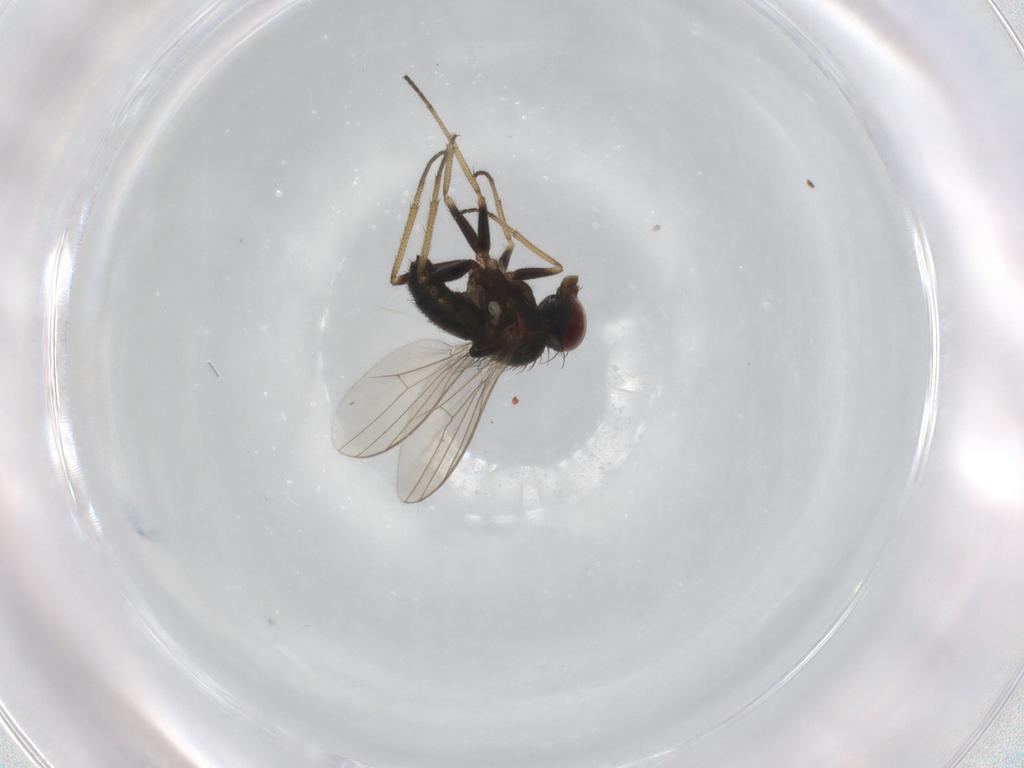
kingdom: Animalia
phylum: Arthropoda
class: Insecta
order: Diptera
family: Dolichopodidae
